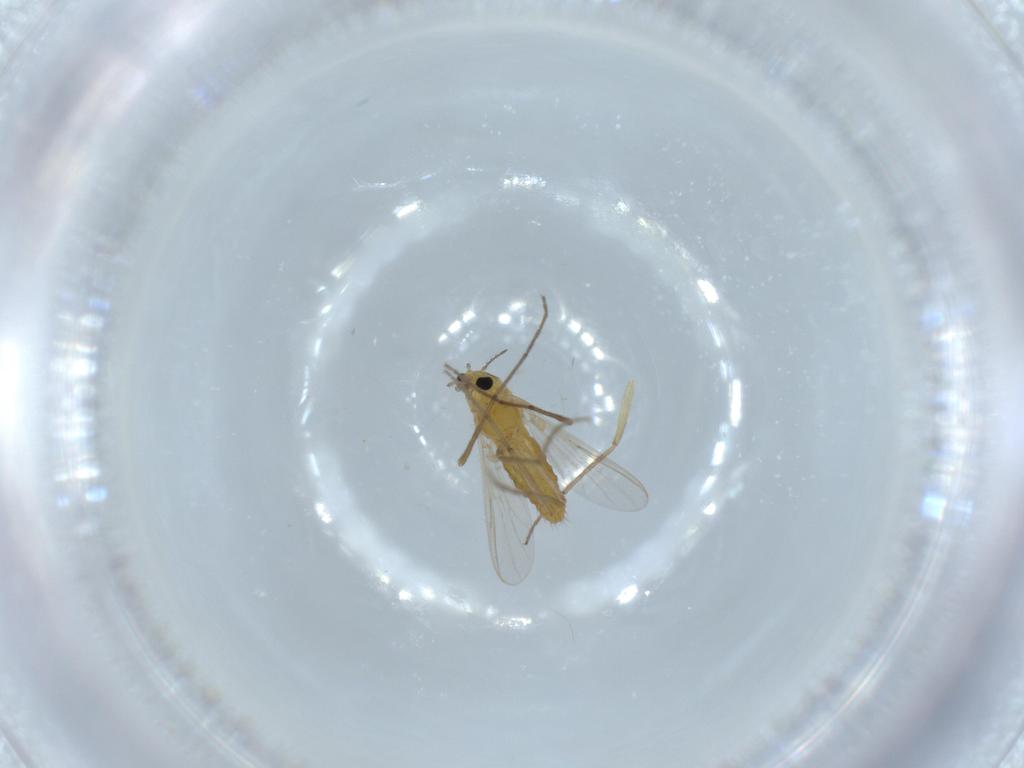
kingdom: Animalia
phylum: Arthropoda
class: Insecta
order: Diptera
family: Chironomidae
